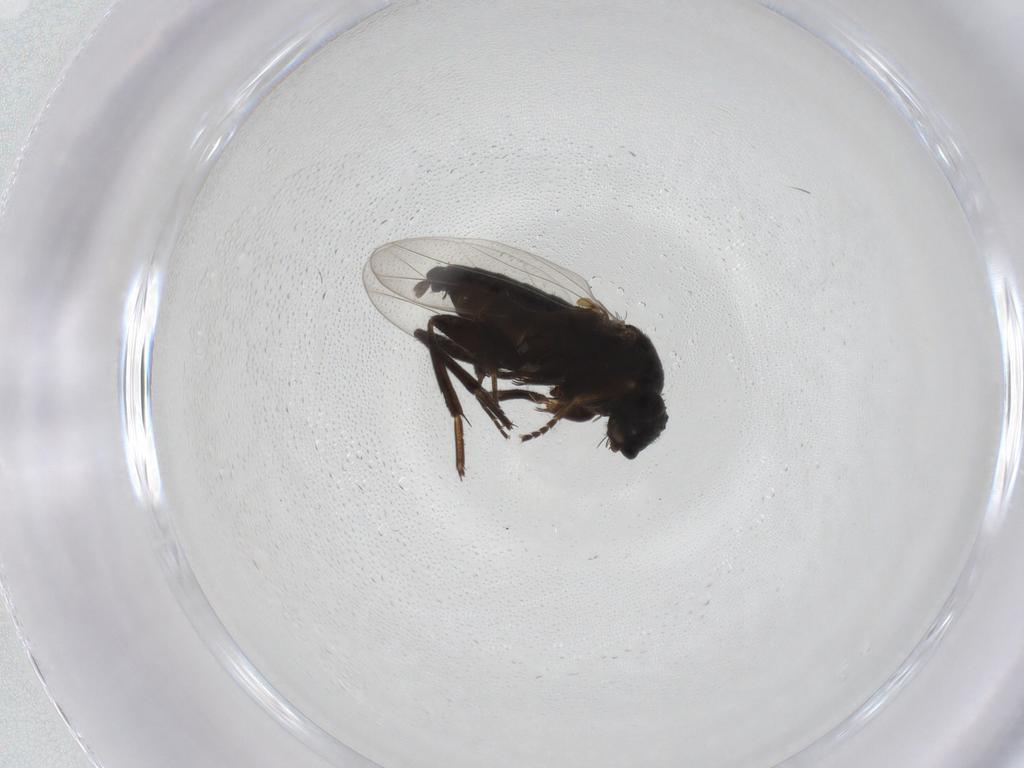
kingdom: Animalia
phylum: Arthropoda
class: Insecta
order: Diptera
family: Phoridae
